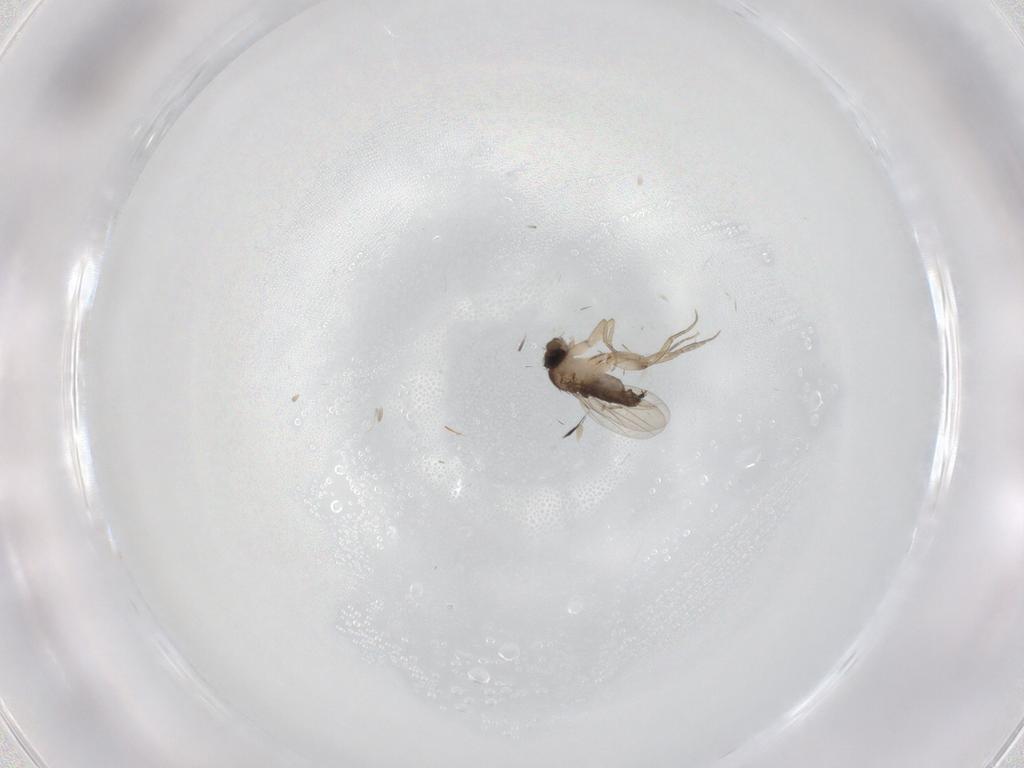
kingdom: Animalia
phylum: Arthropoda
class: Insecta
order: Diptera
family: Phoridae
